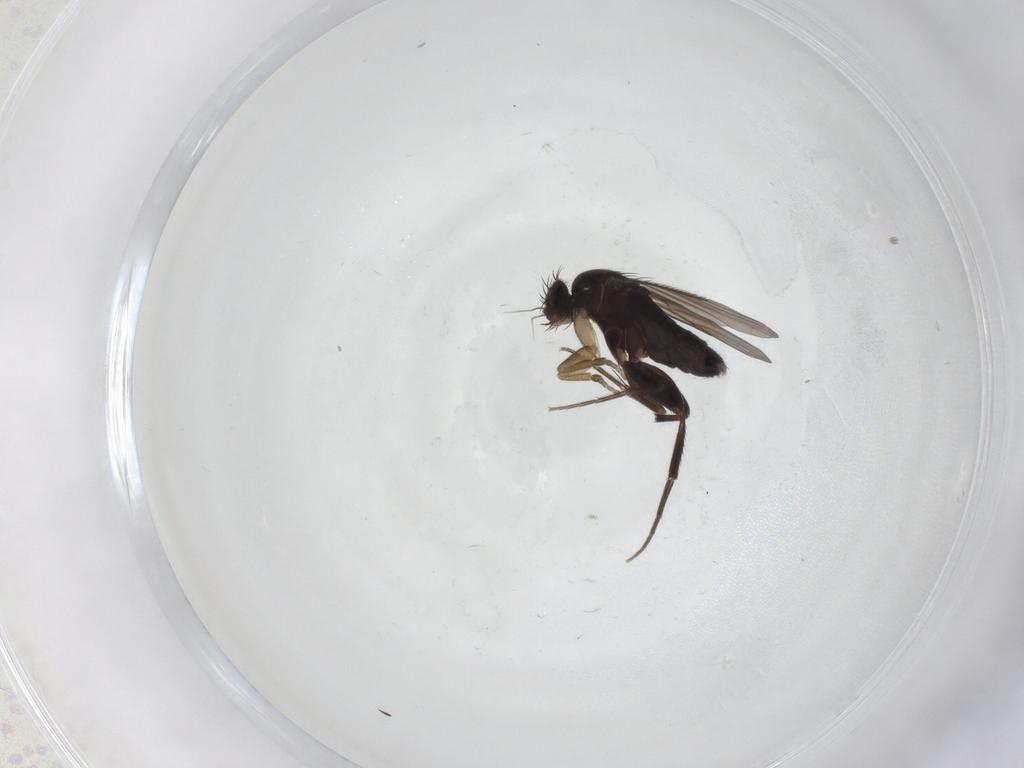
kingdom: Animalia
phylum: Arthropoda
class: Insecta
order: Diptera
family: Phoridae
